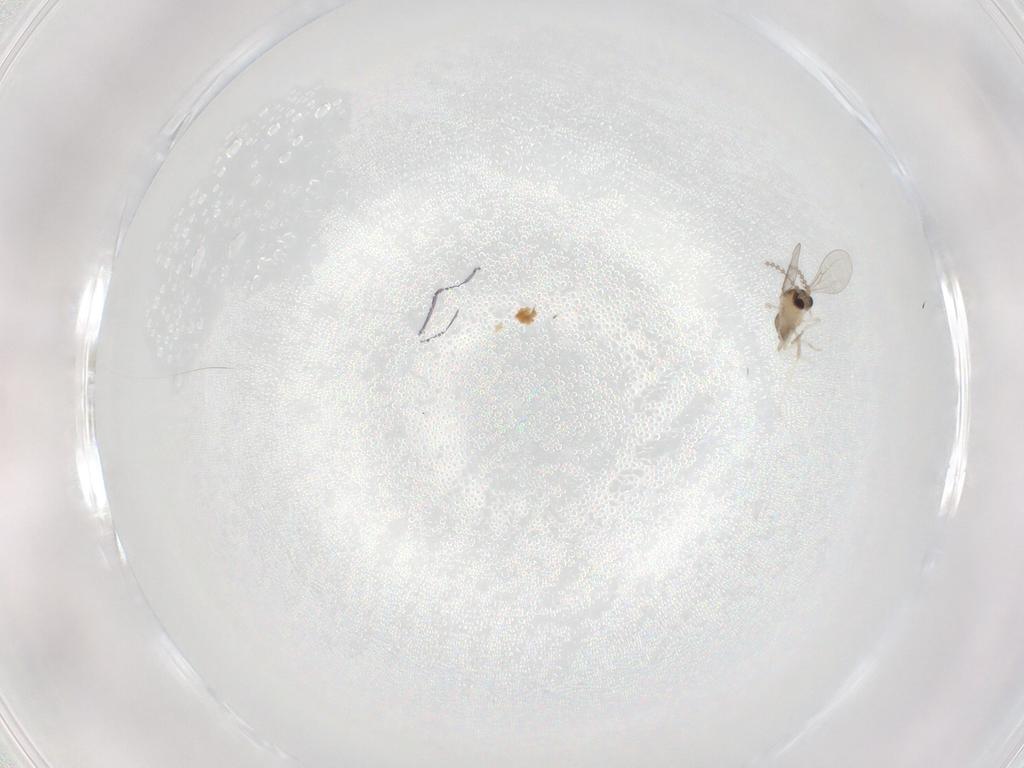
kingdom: Animalia
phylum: Arthropoda
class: Insecta
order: Diptera
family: Cecidomyiidae
